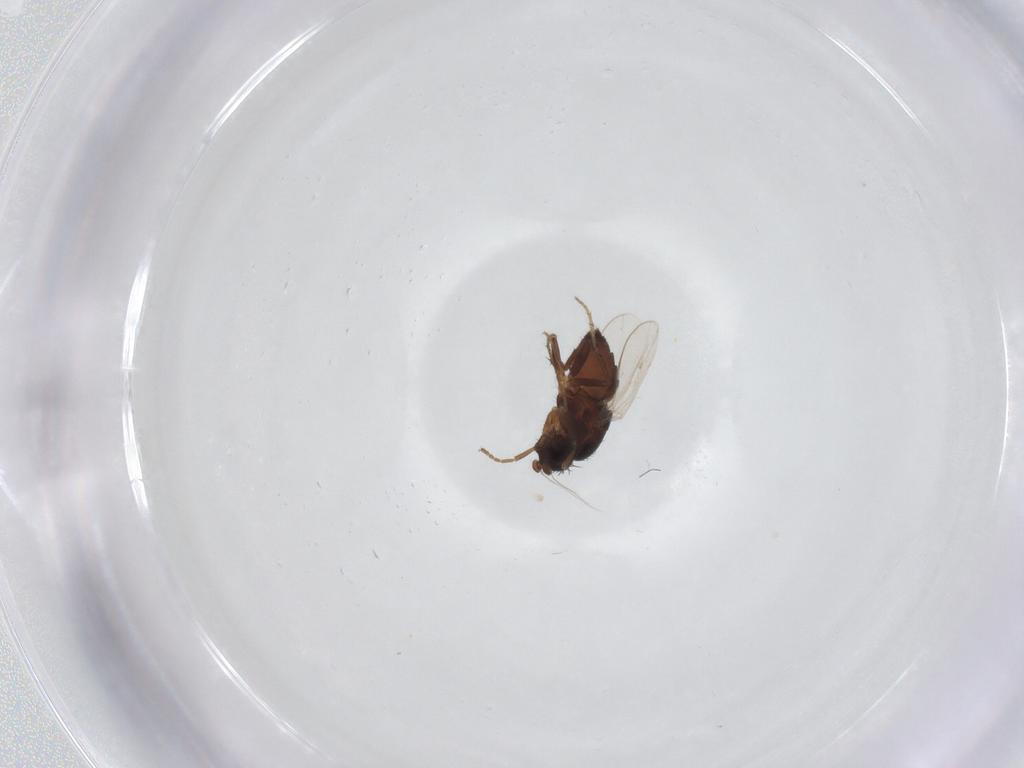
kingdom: Animalia
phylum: Arthropoda
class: Insecta
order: Diptera
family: Sphaeroceridae
